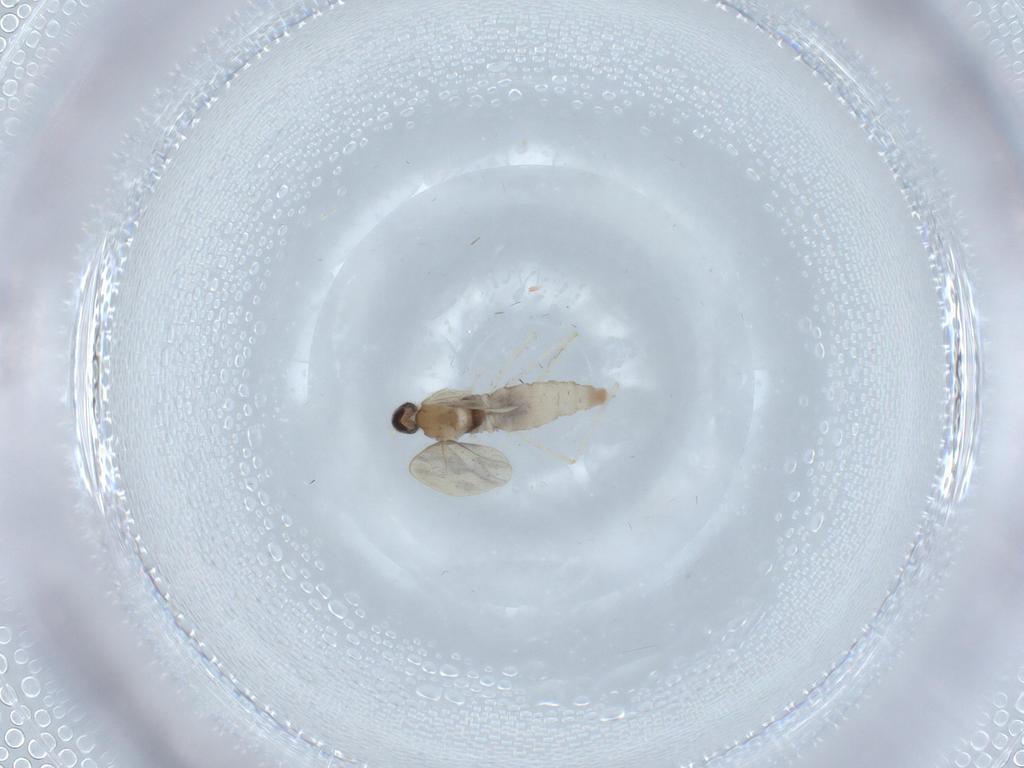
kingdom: Animalia
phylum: Arthropoda
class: Insecta
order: Diptera
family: Cecidomyiidae
